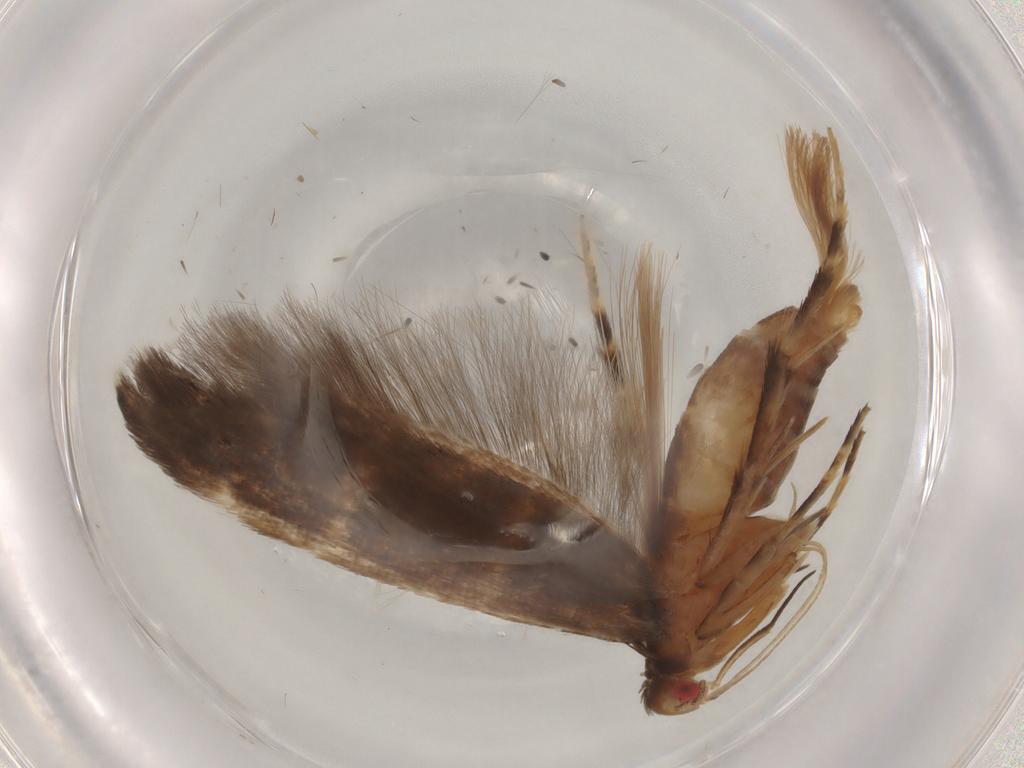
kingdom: Animalia
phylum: Arthropoda
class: Insecta
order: Lepidoptera
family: Cosmopterigidae
